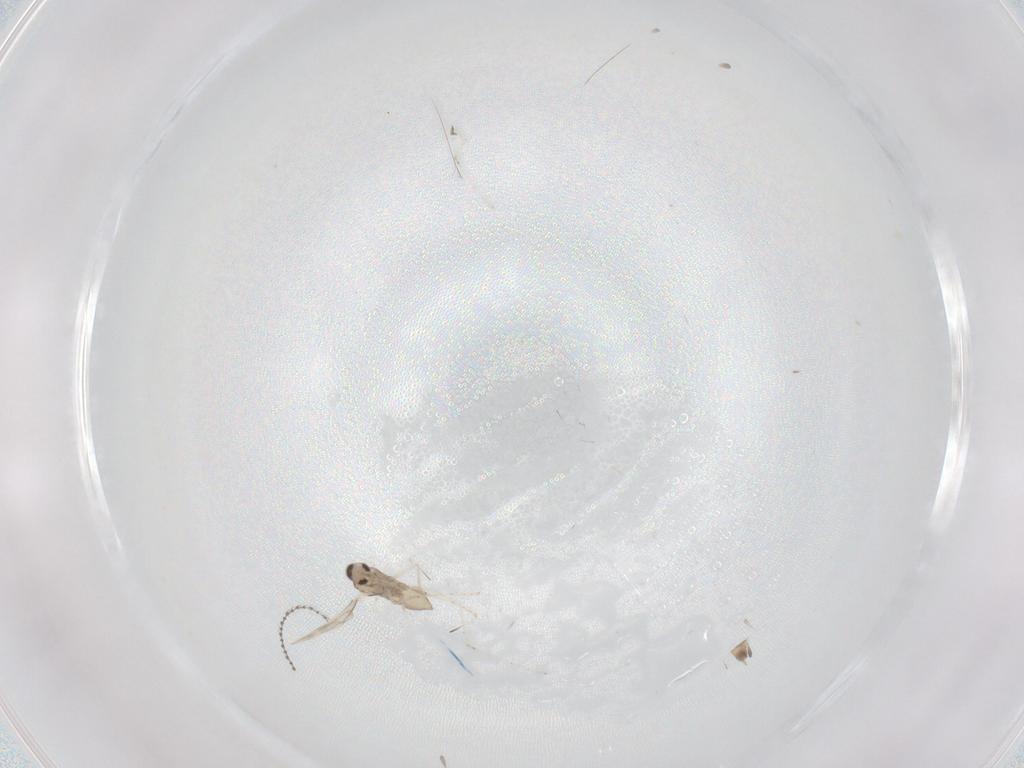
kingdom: Animalia
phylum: Arthropoda
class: Insecta
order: Diptera
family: Cecidomyiidae
